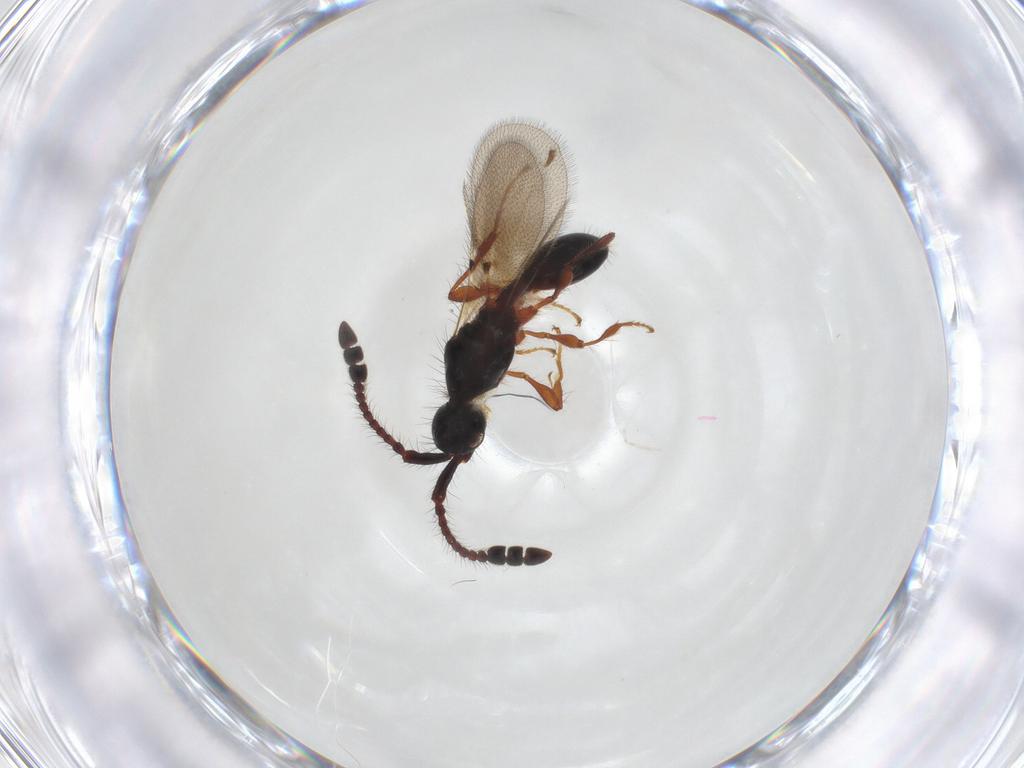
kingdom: Animalia
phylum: Arthropoda
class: Insecta
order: Hymenoptera
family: Diapriidae
